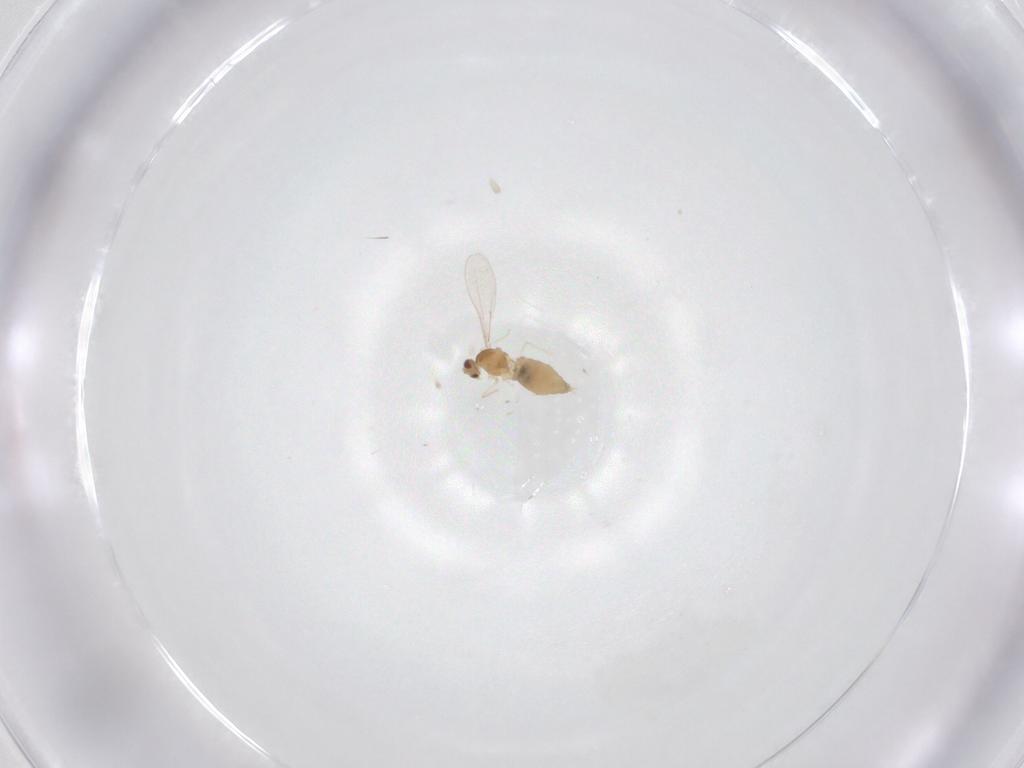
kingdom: Animalia
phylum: Arthropoda
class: Insecta
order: Diptera
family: Cecidomyiidae
